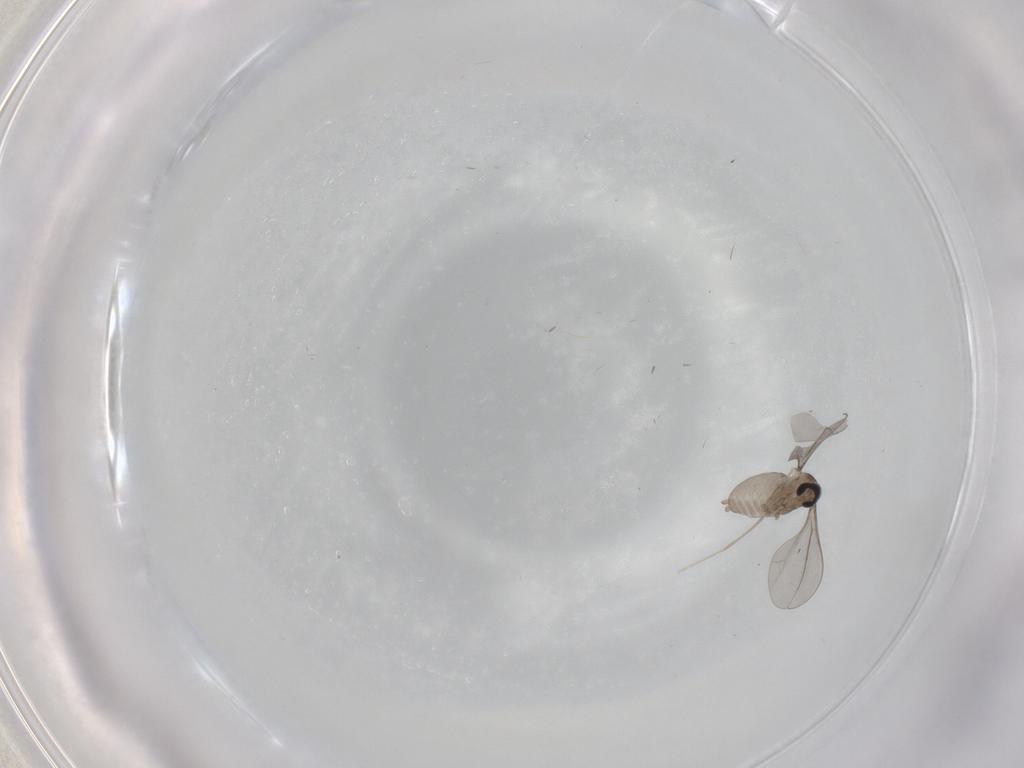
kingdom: Animalia
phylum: Arthropoda
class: Insecta
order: Diptera
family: Cecidomyiidae
